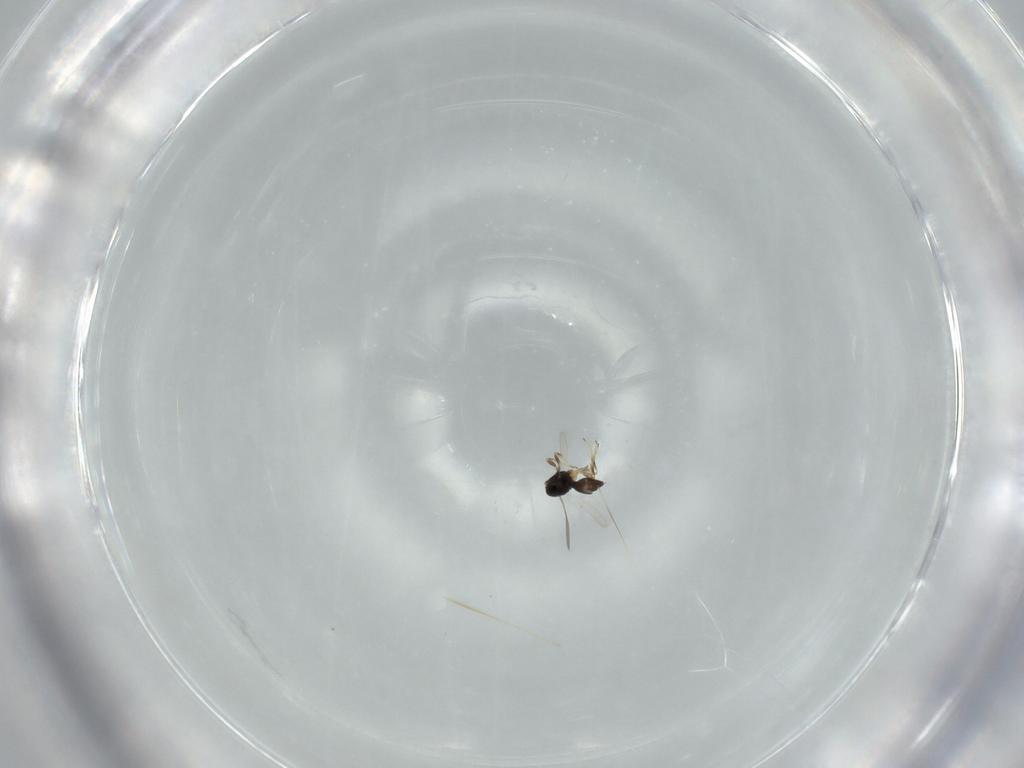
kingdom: Animalia
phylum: Arthropoda
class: Insecta
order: Hymenoptera
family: Scelionidae
